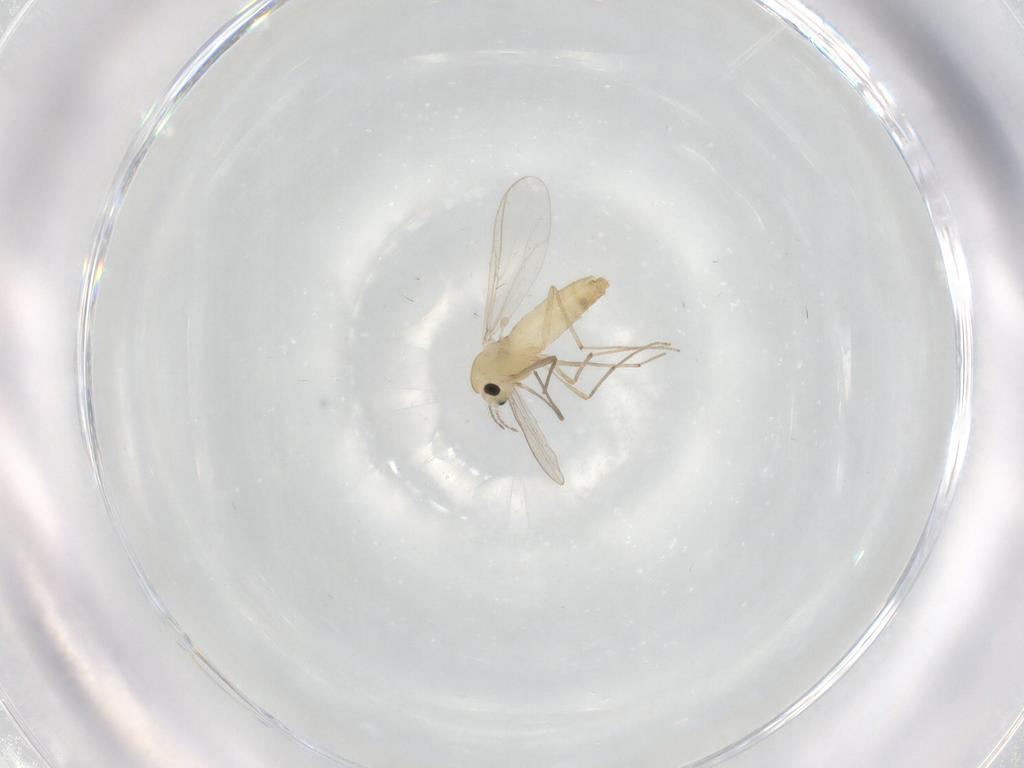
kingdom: Animalia
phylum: Arthropoda
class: Insecta
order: Diptera
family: Chironomidae
